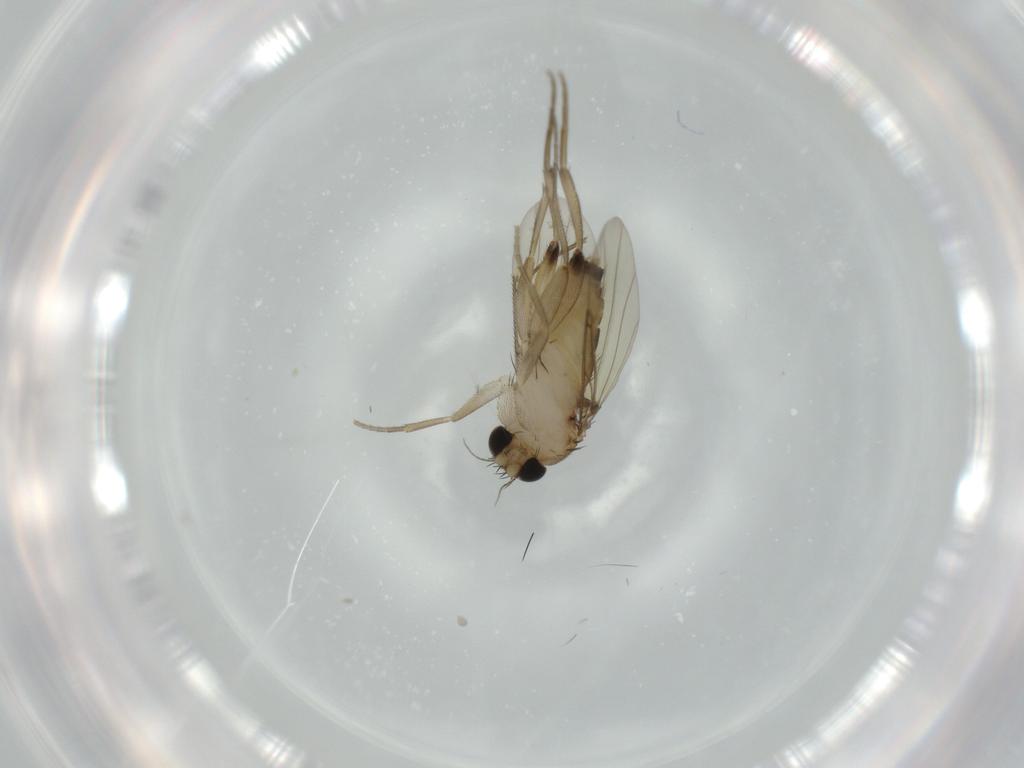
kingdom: Animalia
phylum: Arthropoda
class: Insecta
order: Diptera
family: Phoridae
